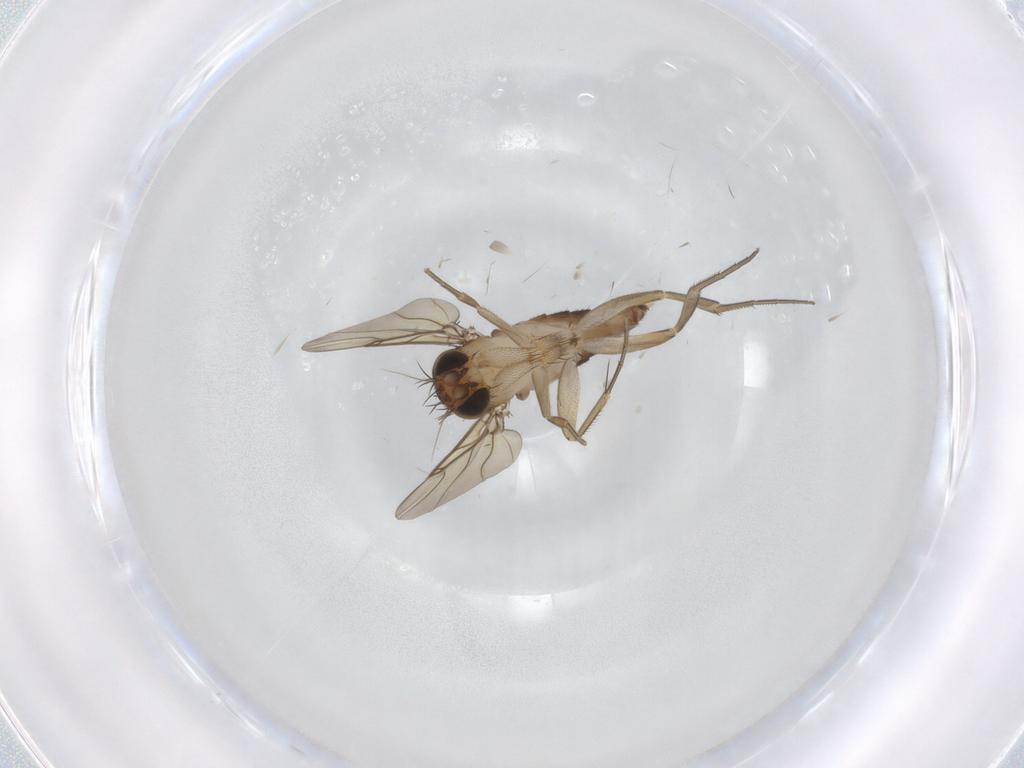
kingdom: Animalia
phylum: Arthropoda
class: Insecta
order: Diptera
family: Phoridae
